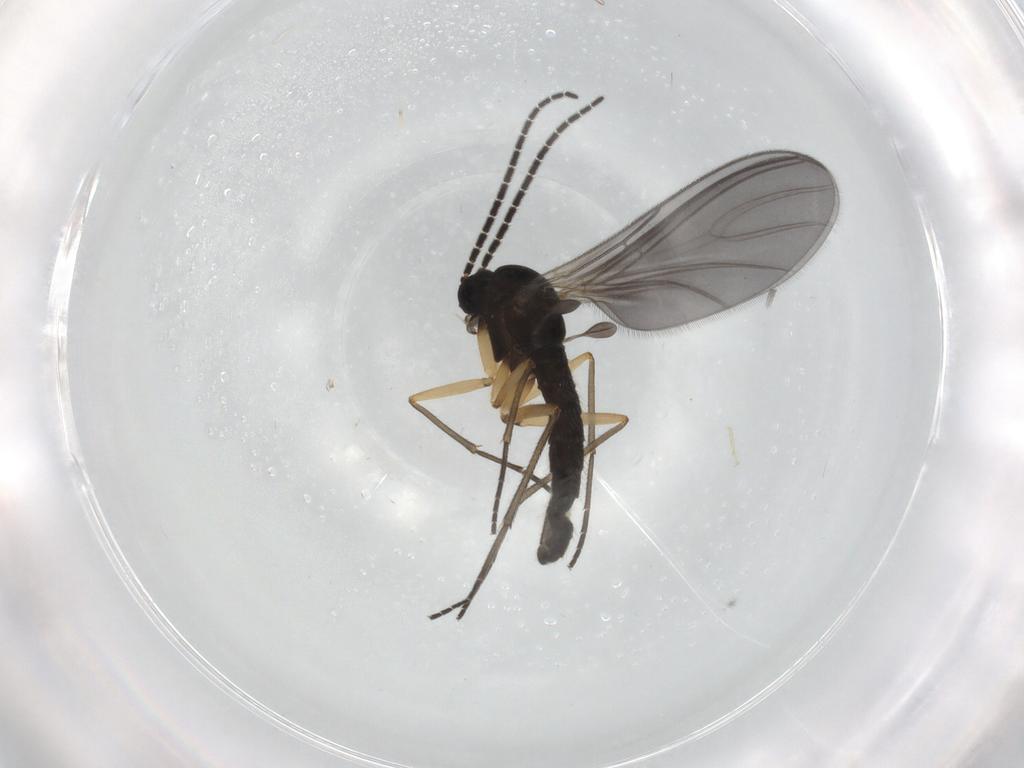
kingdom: Animalia
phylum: Arthropoda
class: Insecta
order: Diptera
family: Sciaridae
